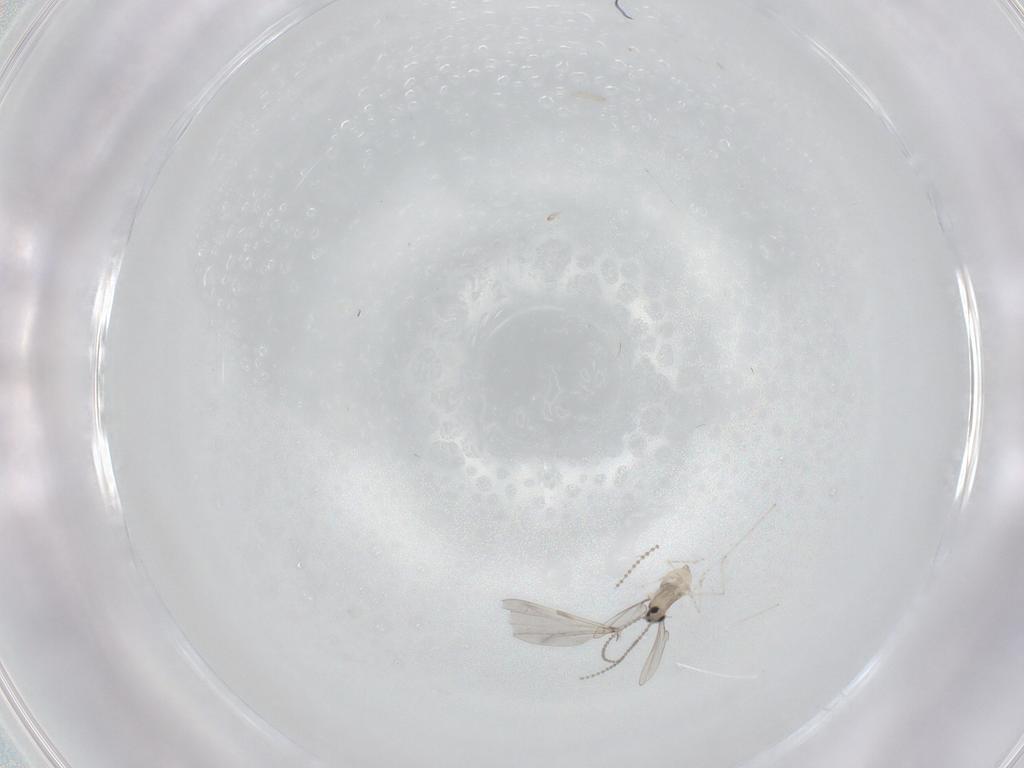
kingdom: Animalia
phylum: Arthropoda
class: Insecta
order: Diptera
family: Cecidomyiidae
